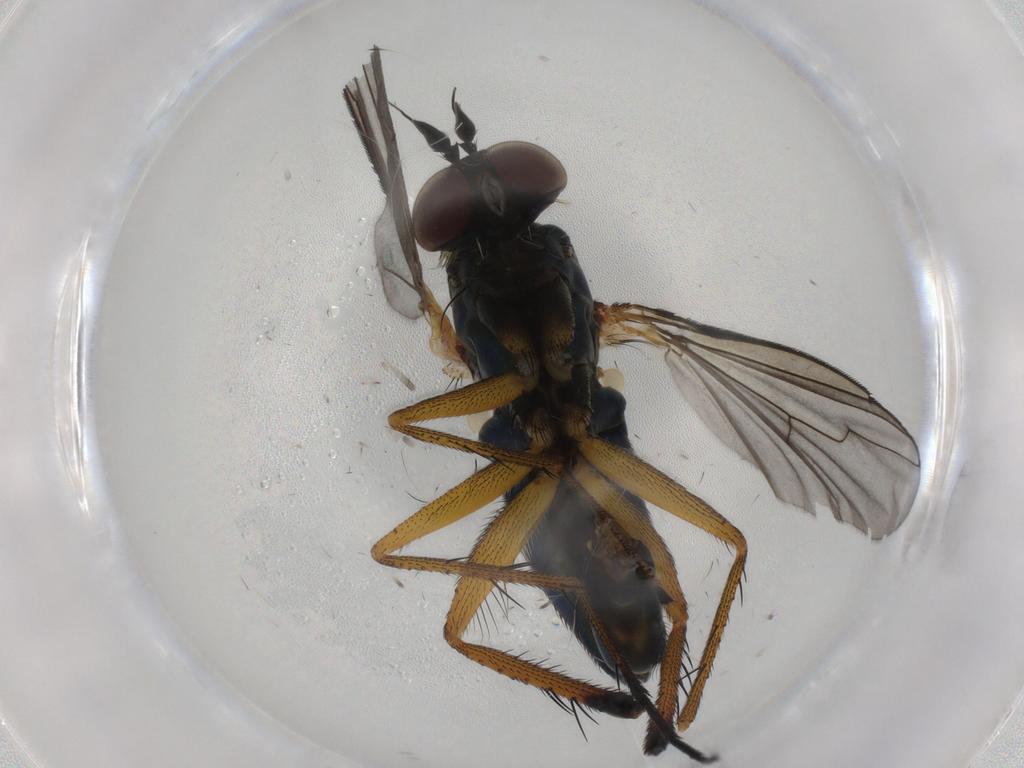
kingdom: Animalia
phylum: Arthropoda
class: Insecta
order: Diptera
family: Dolichopodidae
